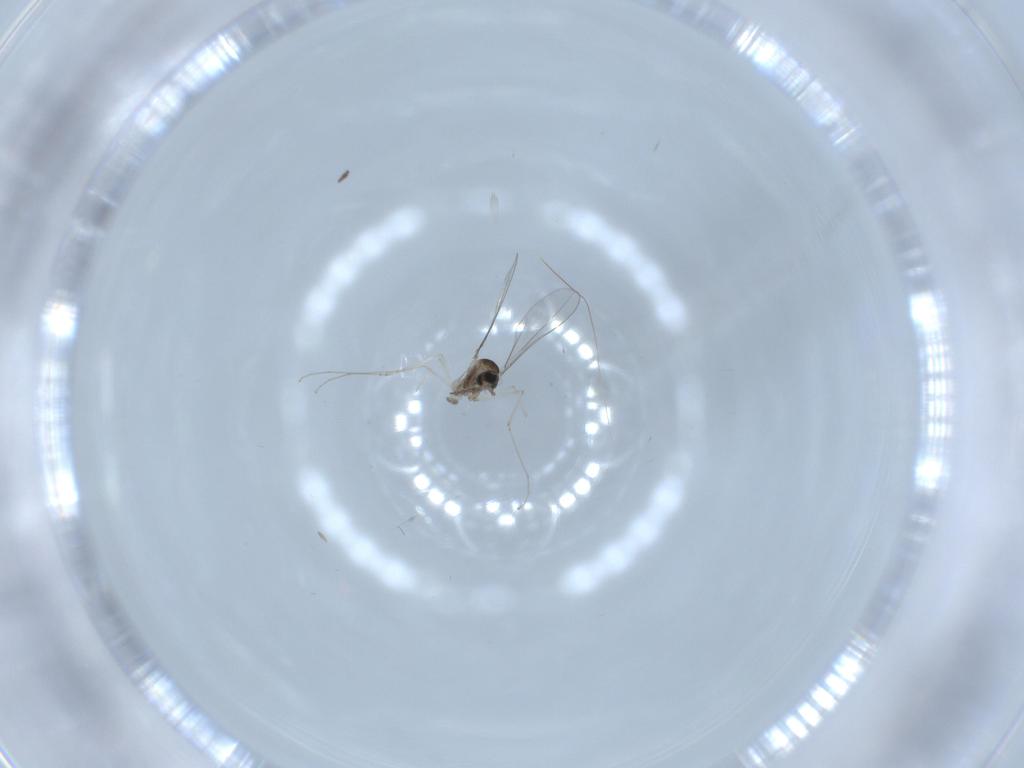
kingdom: Animalia
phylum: Arthropoda
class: Insecta
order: Diptera
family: Cecidomyiidae
